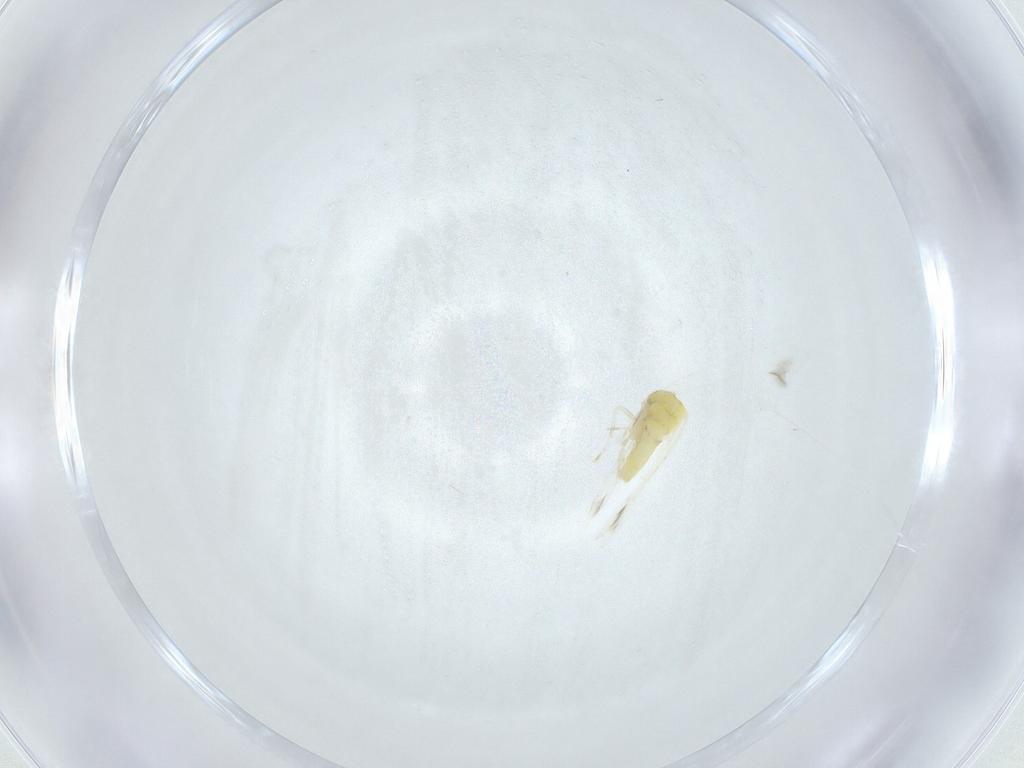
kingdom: Animalia
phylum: Arthropoda
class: Insecta
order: Hemiptera
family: Aleyrodidae
